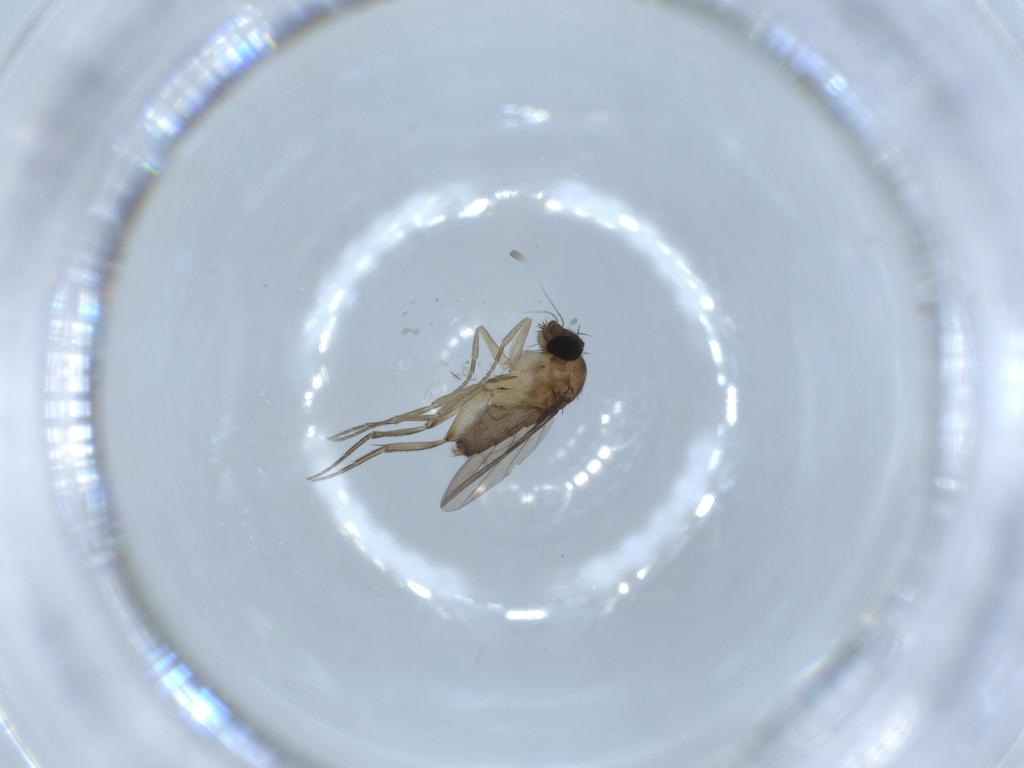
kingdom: Animalia
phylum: Arthropoda
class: Insecta
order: Diptera
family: Phoridae
